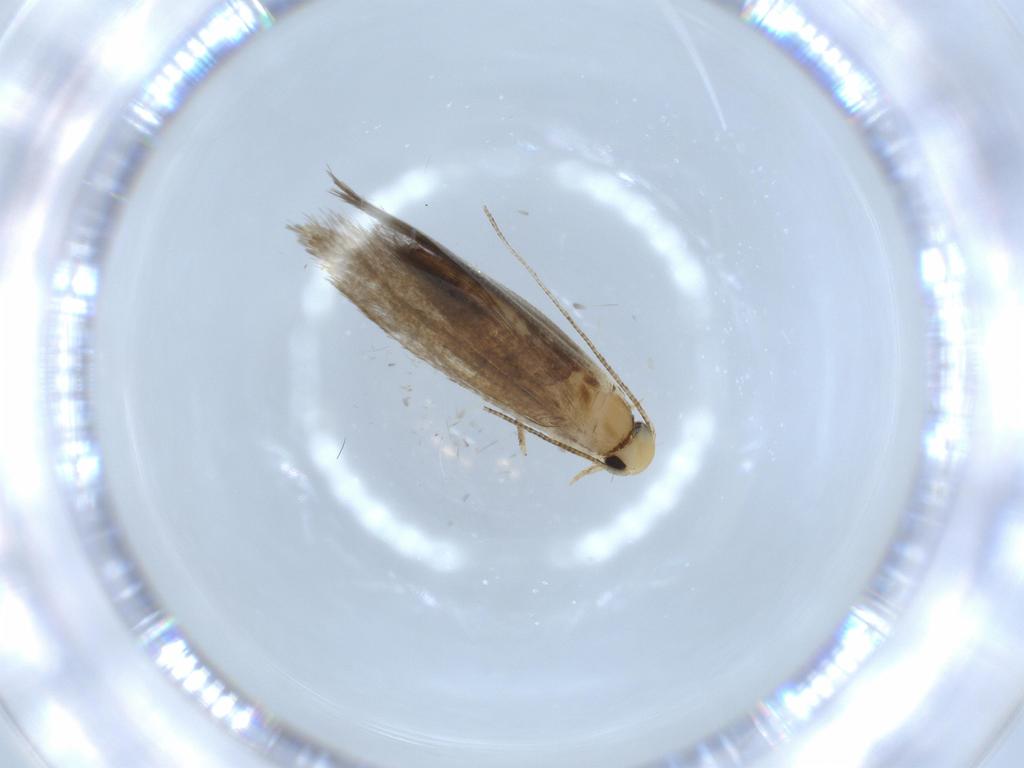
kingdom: Animalia
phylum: Arthropoda
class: Insecta
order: Lepidoptera
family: Tineidae
